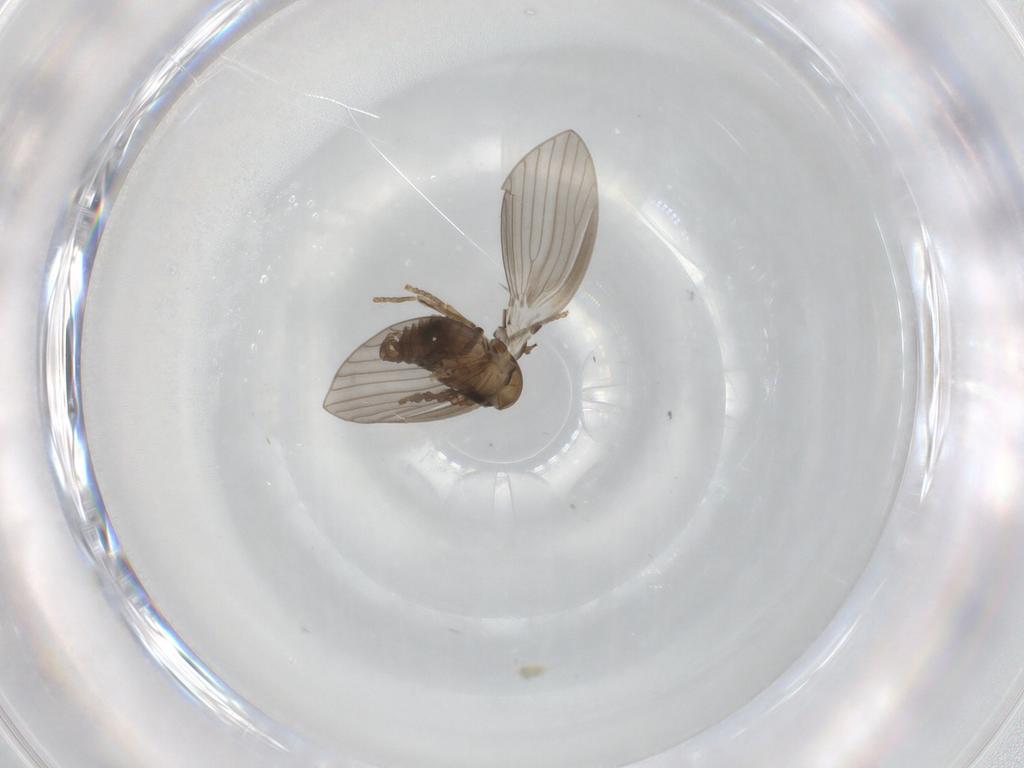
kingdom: Animalia
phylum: Arthropoda
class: Insecta
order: Diptera
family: Psychodidae
